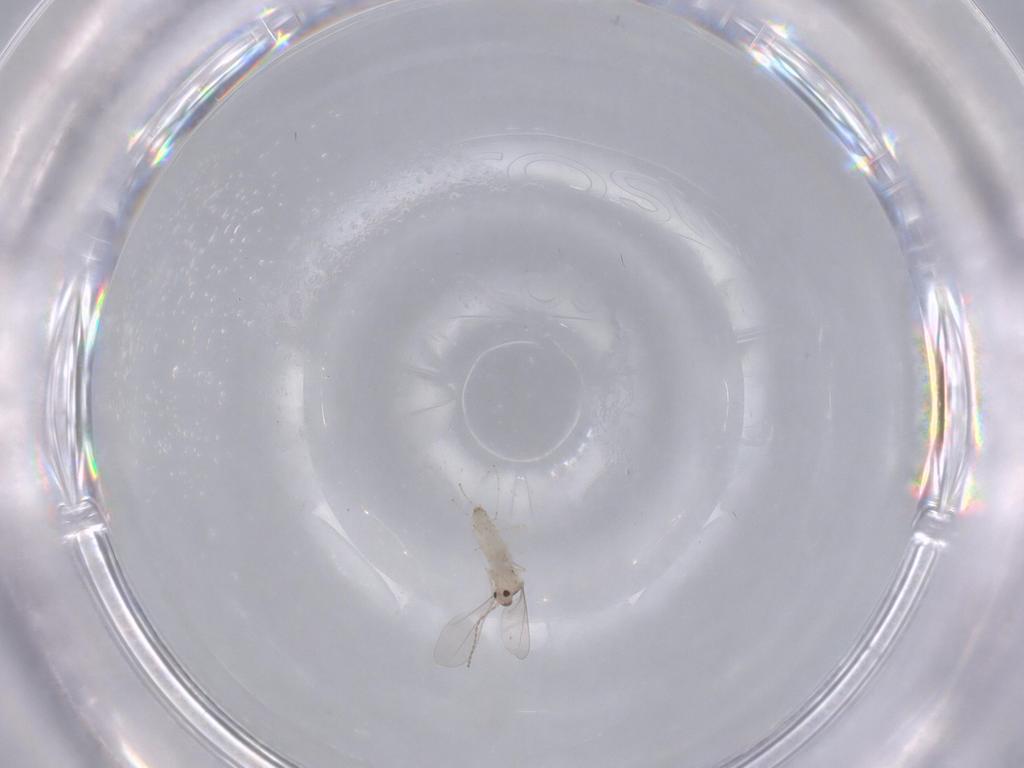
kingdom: Animalia
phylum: Arthropoda
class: Insecta
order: Diptera
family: Cecidomyiidae
